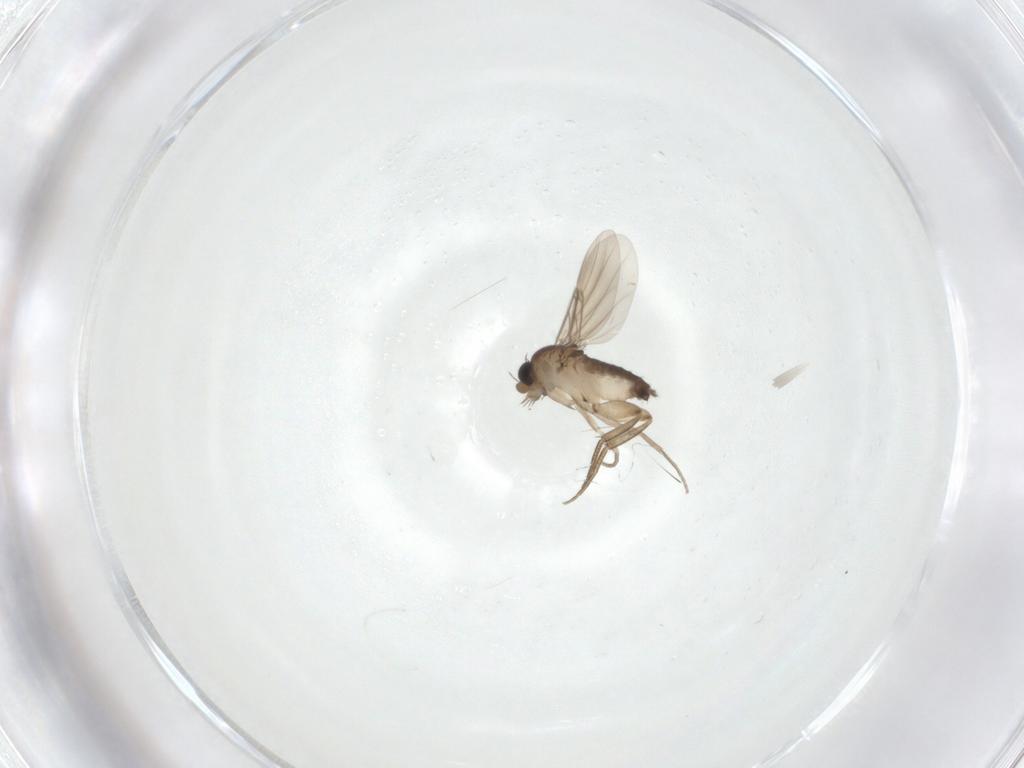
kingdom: Animalia
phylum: Arthropoda
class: Insecta
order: Diptera
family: Phoridae
